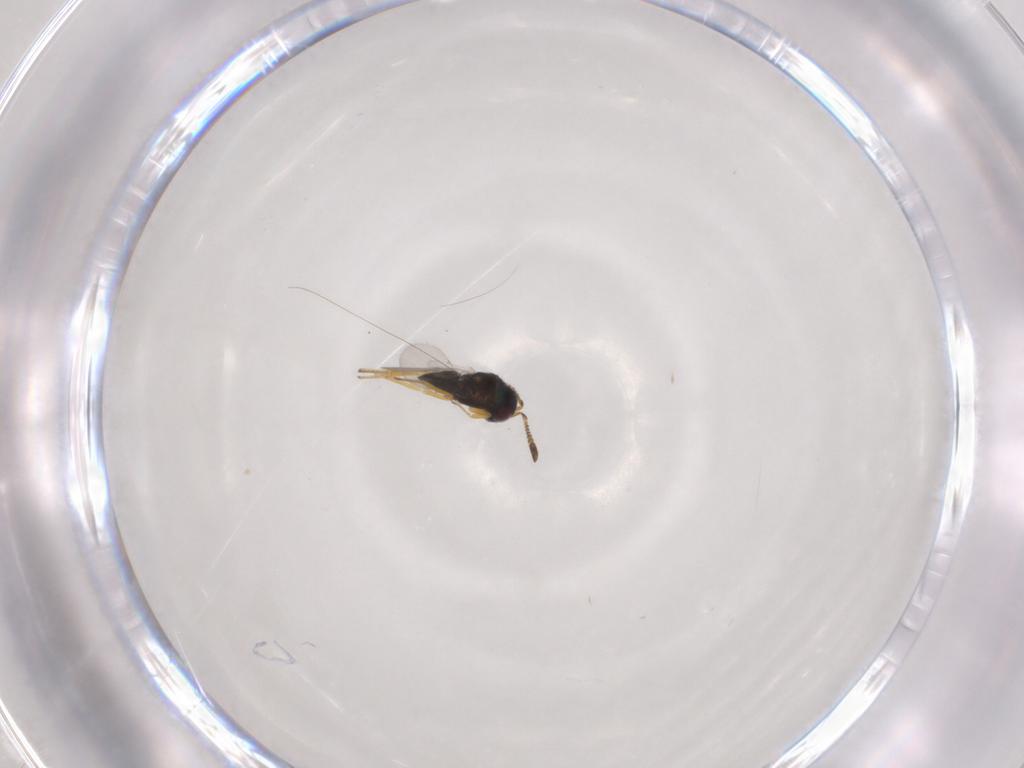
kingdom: Animalia
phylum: Arthropoda
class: Insecta
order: Hymenoptera
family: Encyrtidae
